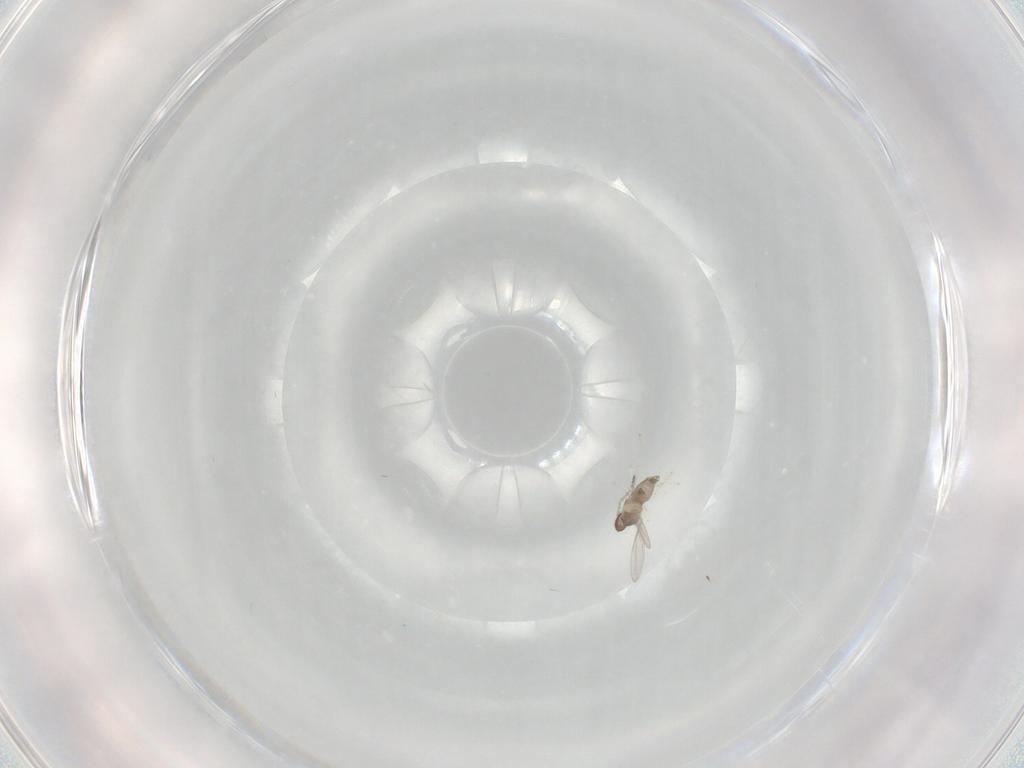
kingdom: Animalia
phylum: Arthropoda
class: Insecta
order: Diptera
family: Cecidomyiidae
